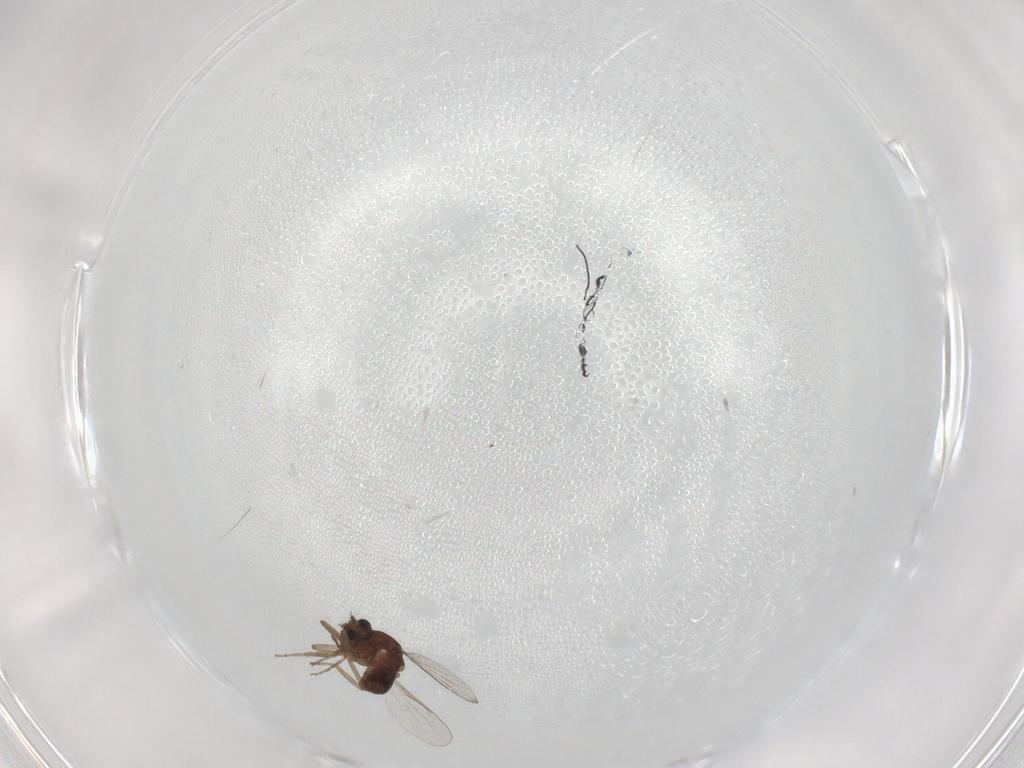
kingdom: Animalia
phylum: Arthropoda
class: Insecta
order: Diptera
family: Ceratopogonidae
